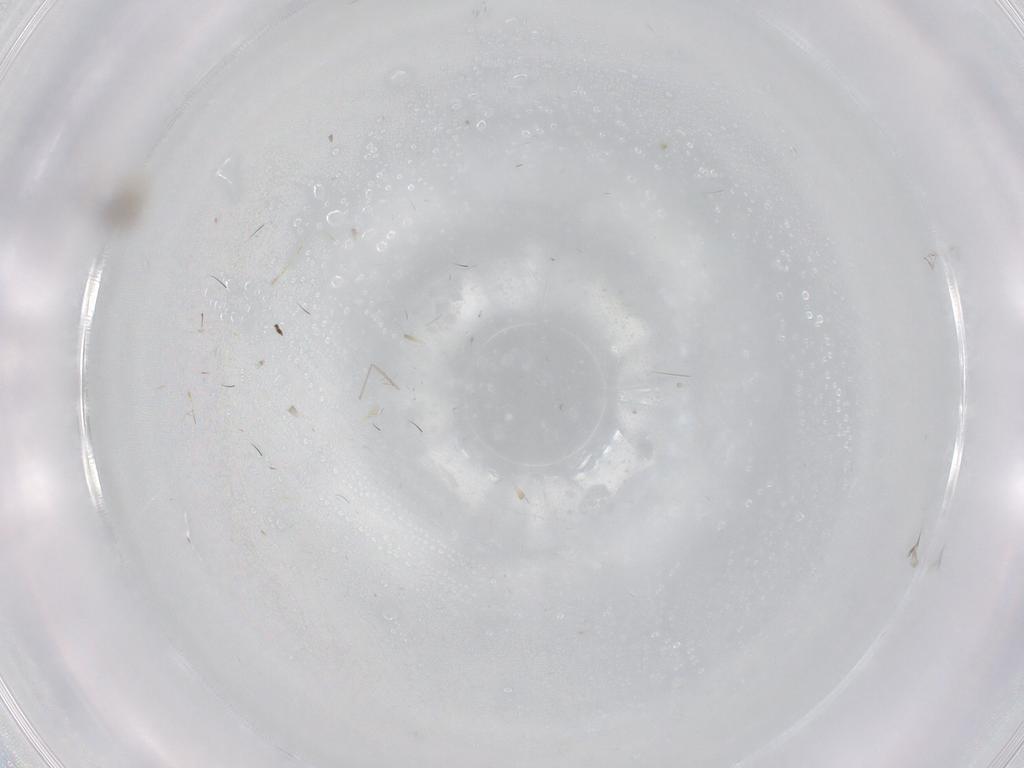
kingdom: Animalia
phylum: Arthropoda
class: Insecta
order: Diptera
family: Cecidomyiidae
